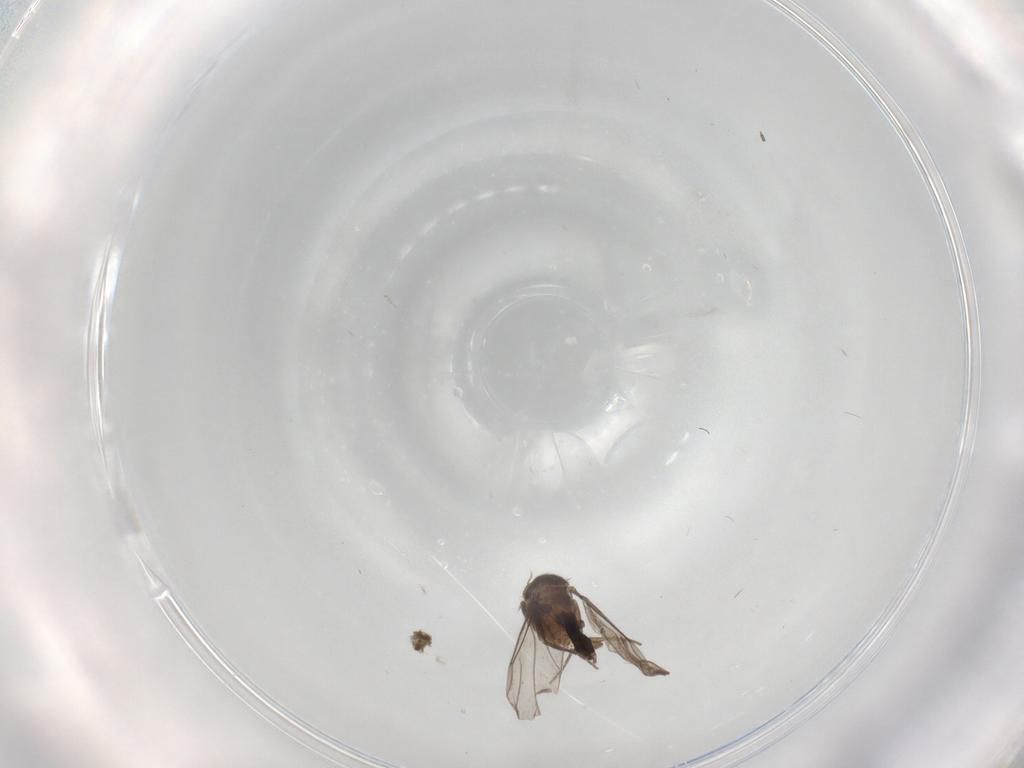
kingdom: Animalia
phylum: Arthropoda
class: Insecta
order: Diptera
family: Cecidomyiidae
